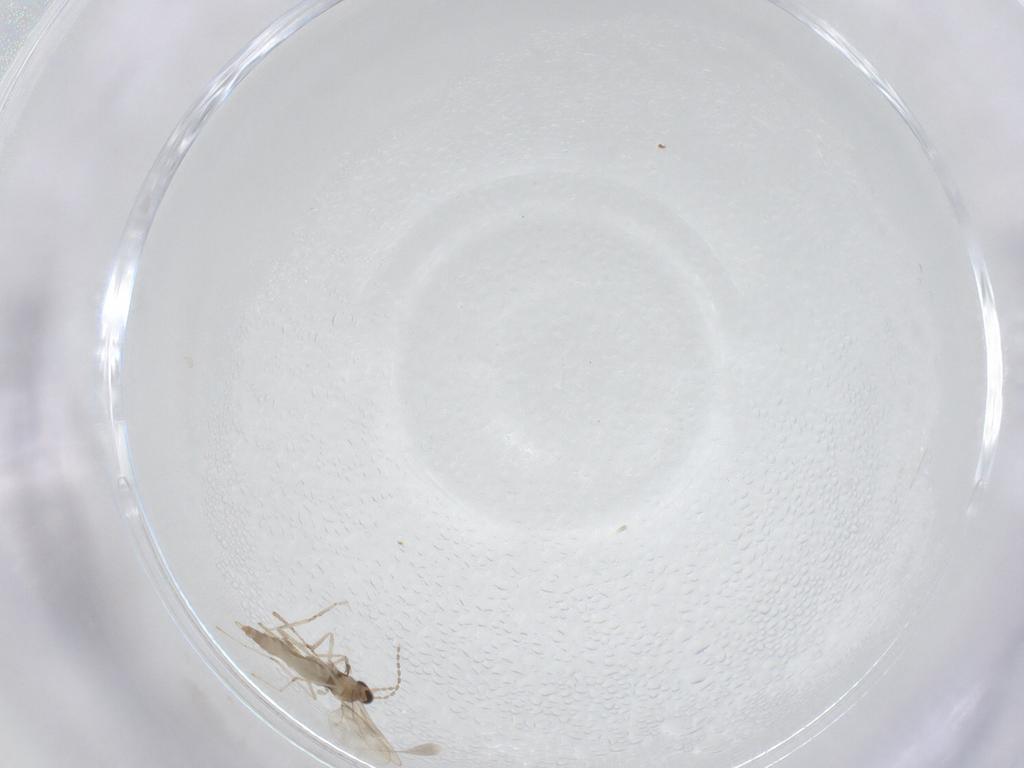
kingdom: Animalia
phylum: Arthropoda
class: Insecta
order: Diptera
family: Cecidomyiidae
